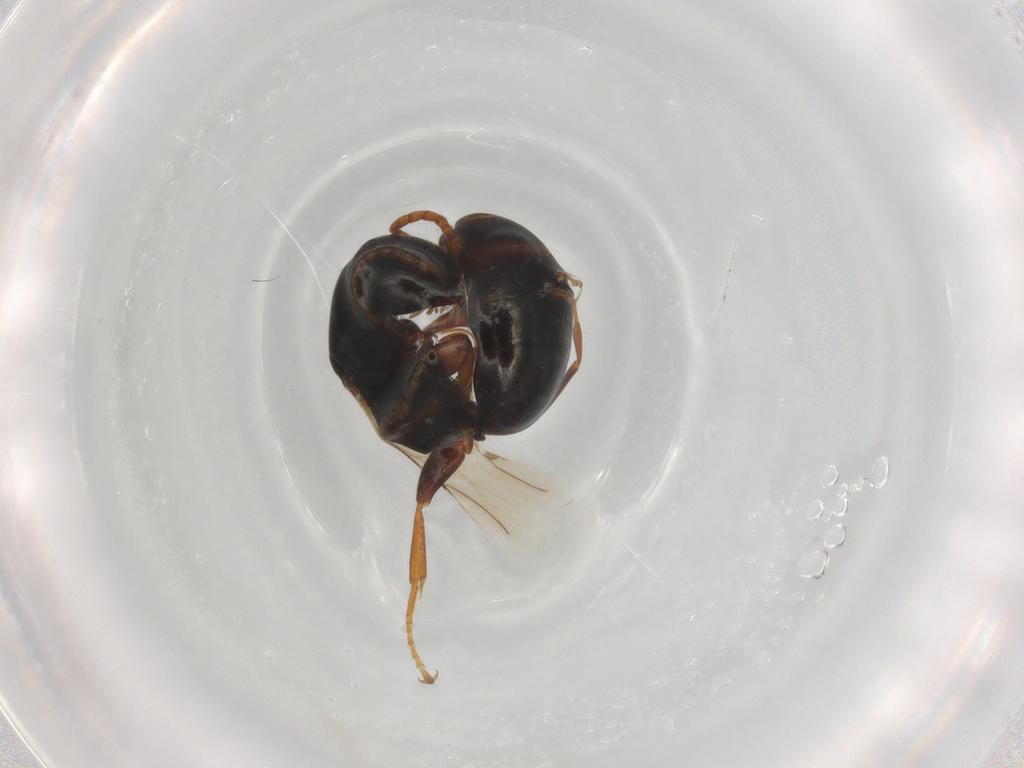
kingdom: Animalia
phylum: Arthropoda
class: Insecta
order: Hymenoptera
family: Bethylidae
